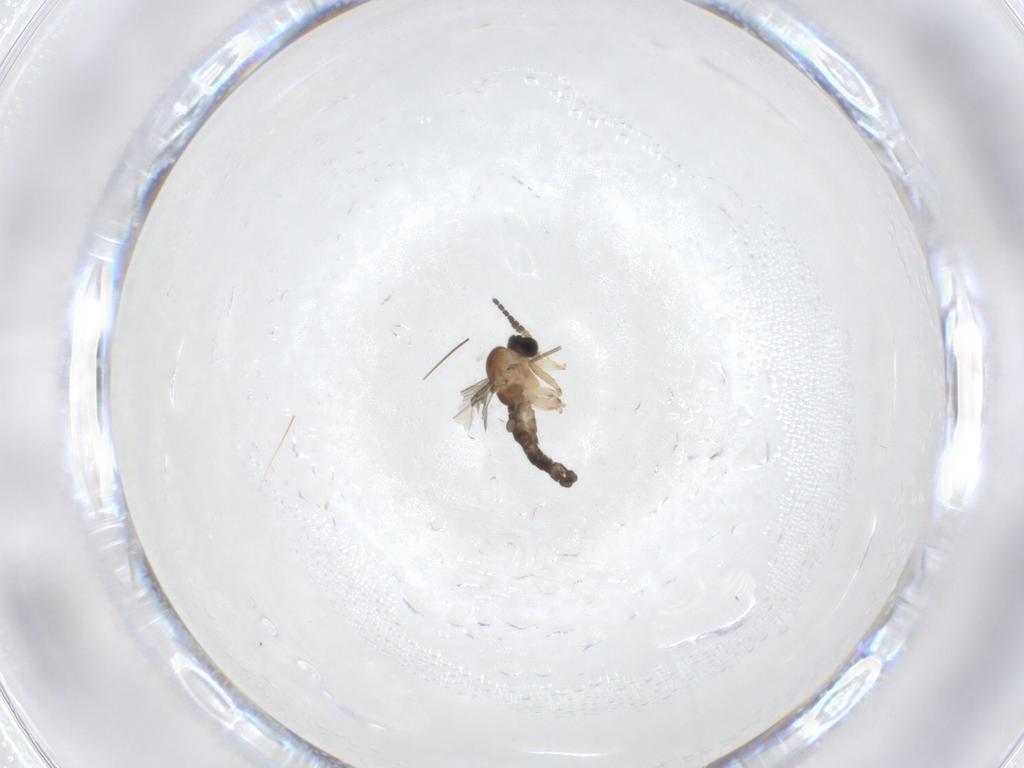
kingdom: Animalia
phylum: Arthropoda
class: Insecta
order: Diptera
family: Sciaridae
